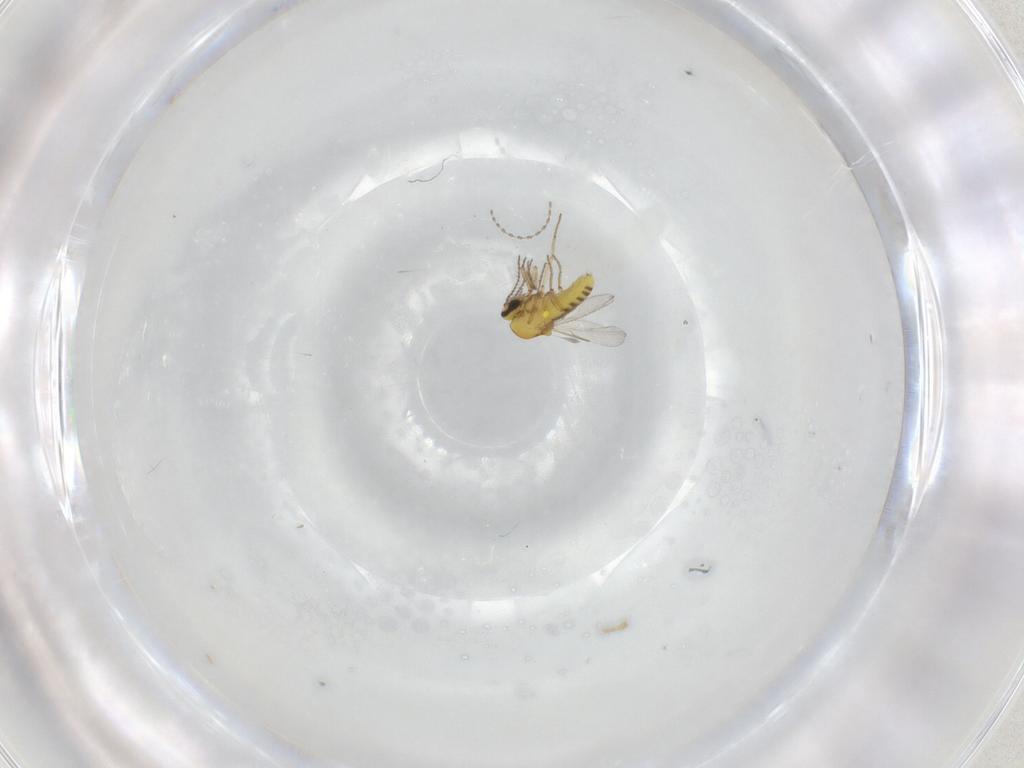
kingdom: Animalia
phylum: Arthropoda
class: Insecta
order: Diptera
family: Ceratopogonidae
